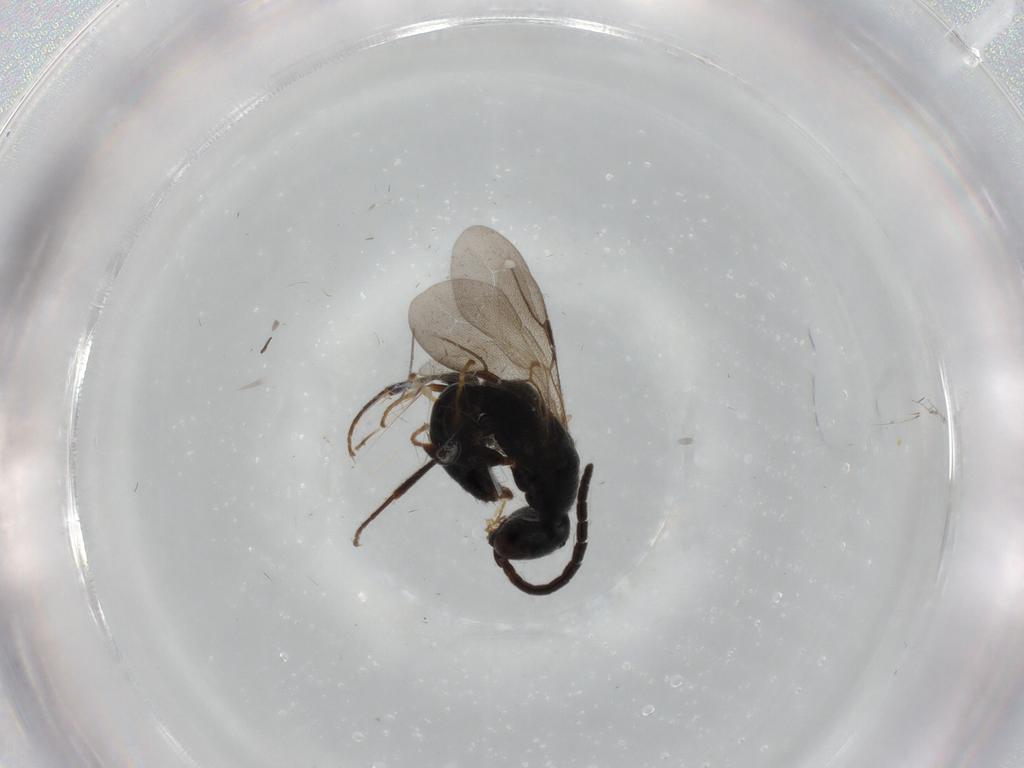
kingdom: Animalia
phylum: Arthropoda
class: Insecta
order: Hymenoptera
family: Bethylidae
